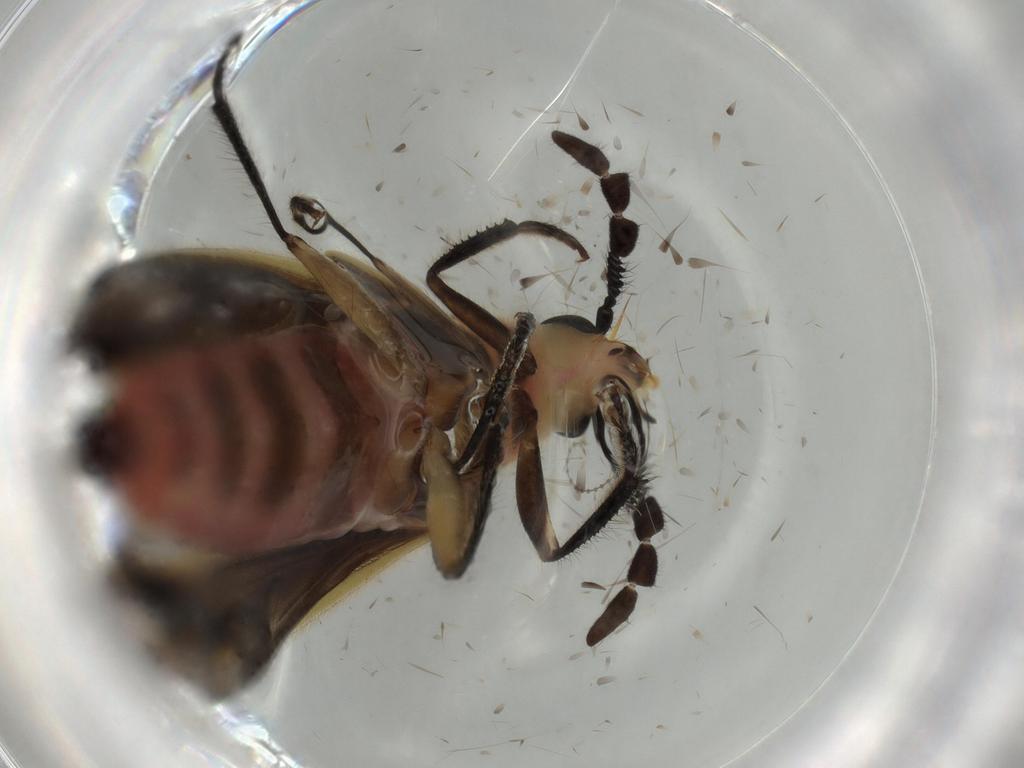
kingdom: Animalia
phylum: Arthropoda
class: Insecta
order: Coleoptera
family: Cleridae
